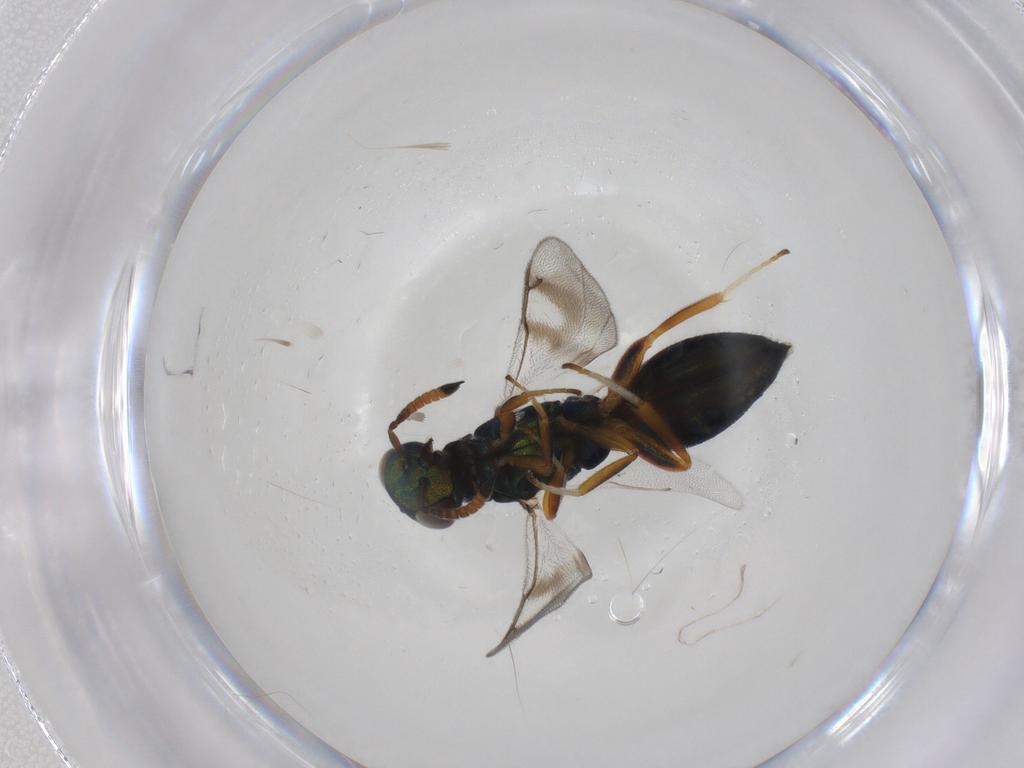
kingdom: Animalia
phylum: Arthropoda
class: Insecta
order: Hymenoptera
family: Cleonyminae
